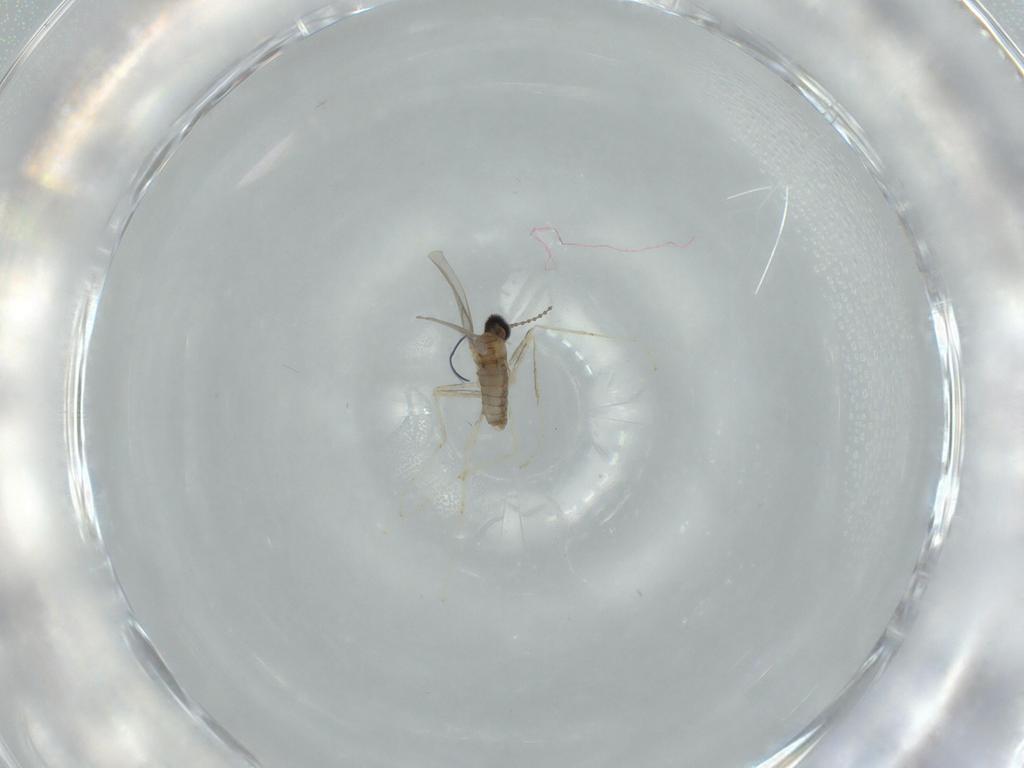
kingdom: Animalia
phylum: Arthropoda
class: Insecta
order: Diptera
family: Cecidomyiidae
